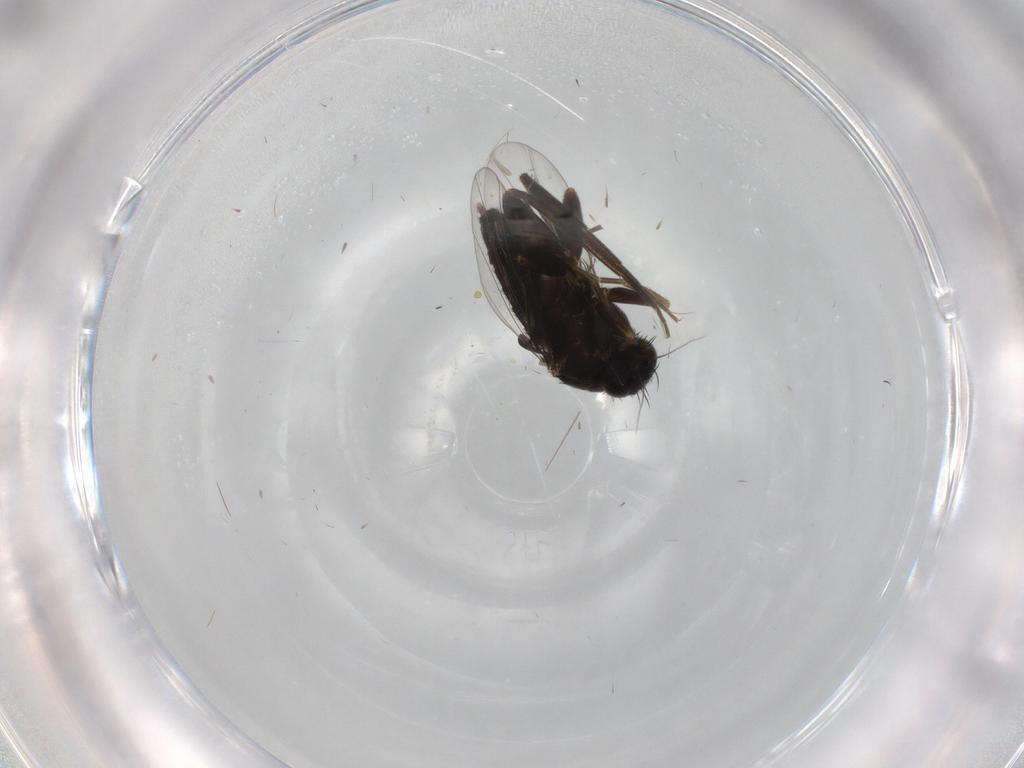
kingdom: Animalia
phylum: Arthropoda
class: Insecta
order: Diptera
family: Phoridae
